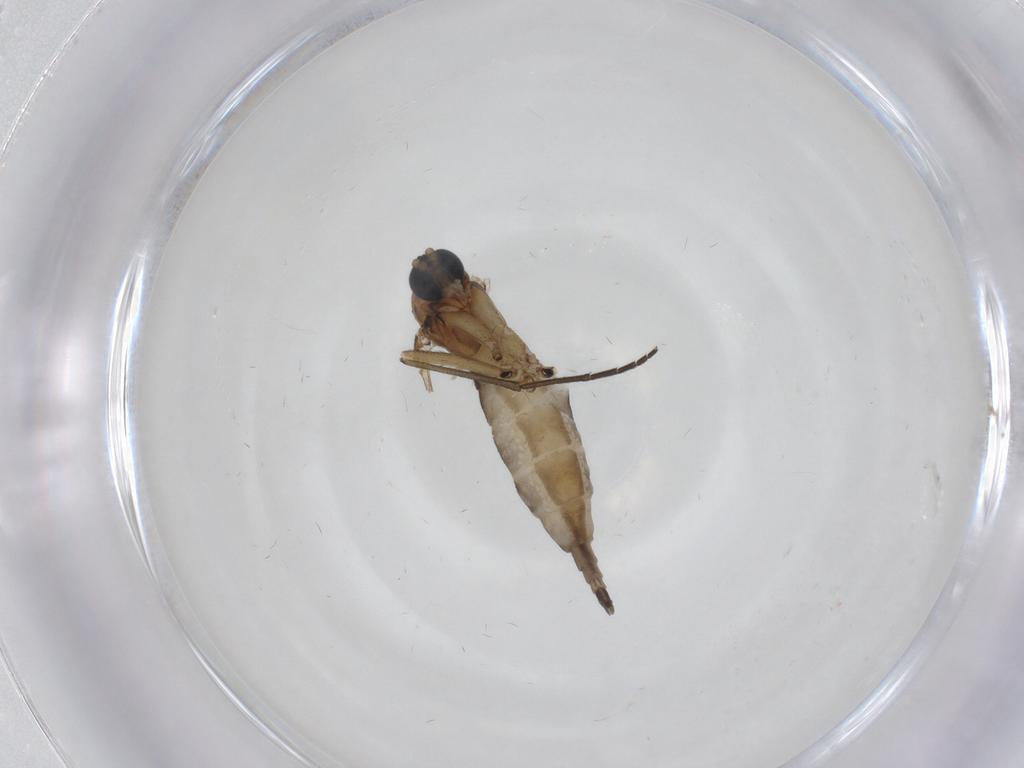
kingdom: Animalia
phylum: Arthropoda
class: Insecta
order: Diptera
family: Sciaridae
